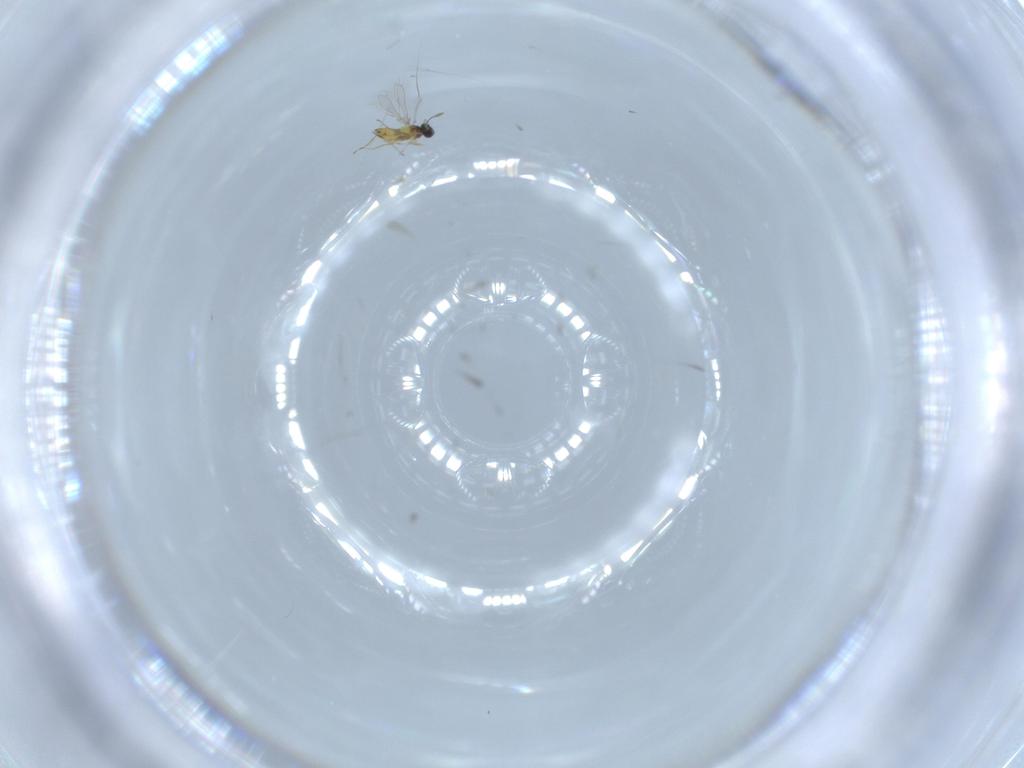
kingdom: Animalia
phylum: Arthropoda
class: Insecta
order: Hymenoptera
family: Mymaridae
